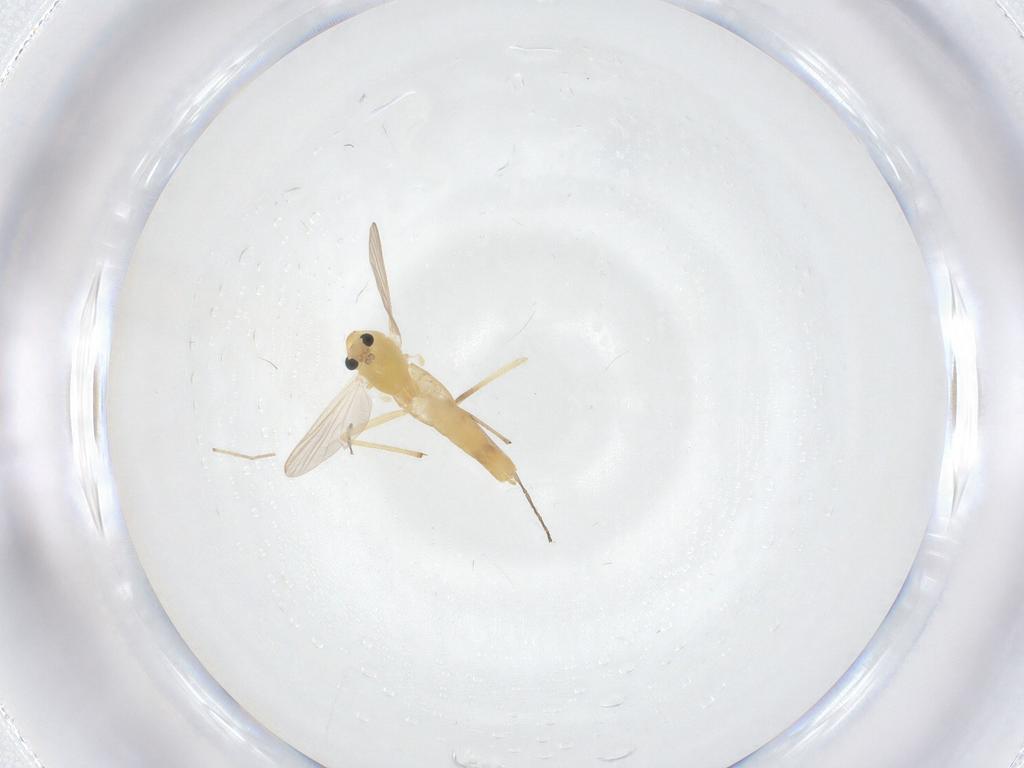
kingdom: Animalia
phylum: Arthropoda
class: Insecta
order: Diptera
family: Chironomidae
